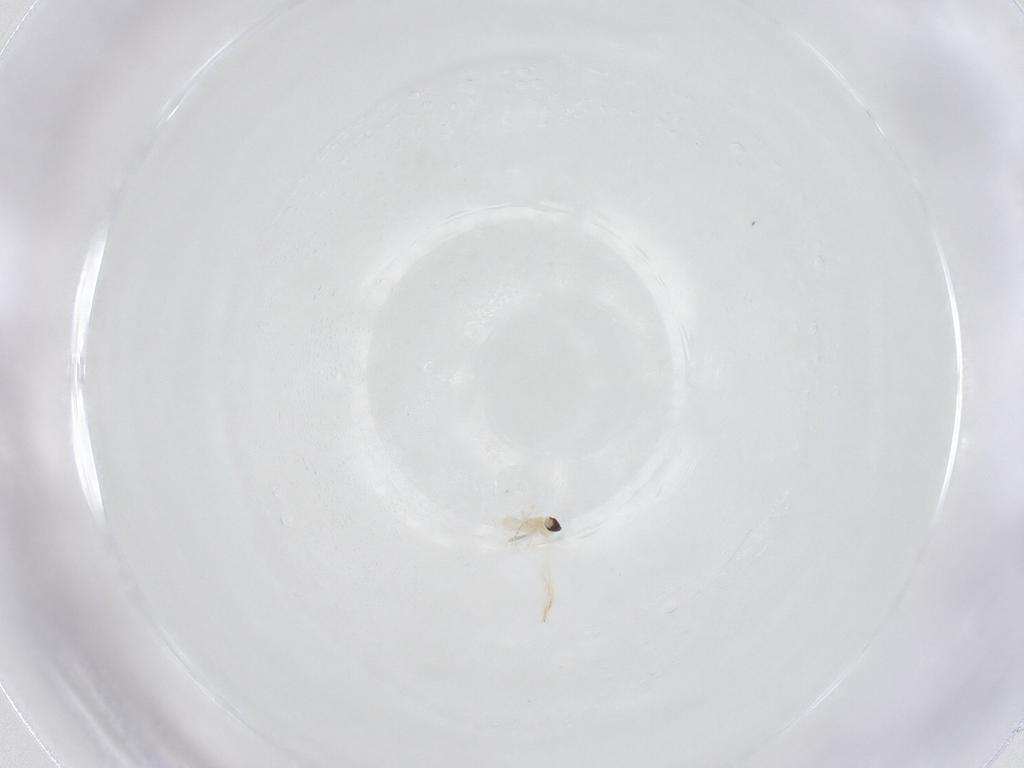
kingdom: Animalia
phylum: Arthropoda
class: Insecta
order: Diptera
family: Cecidomyiidae
